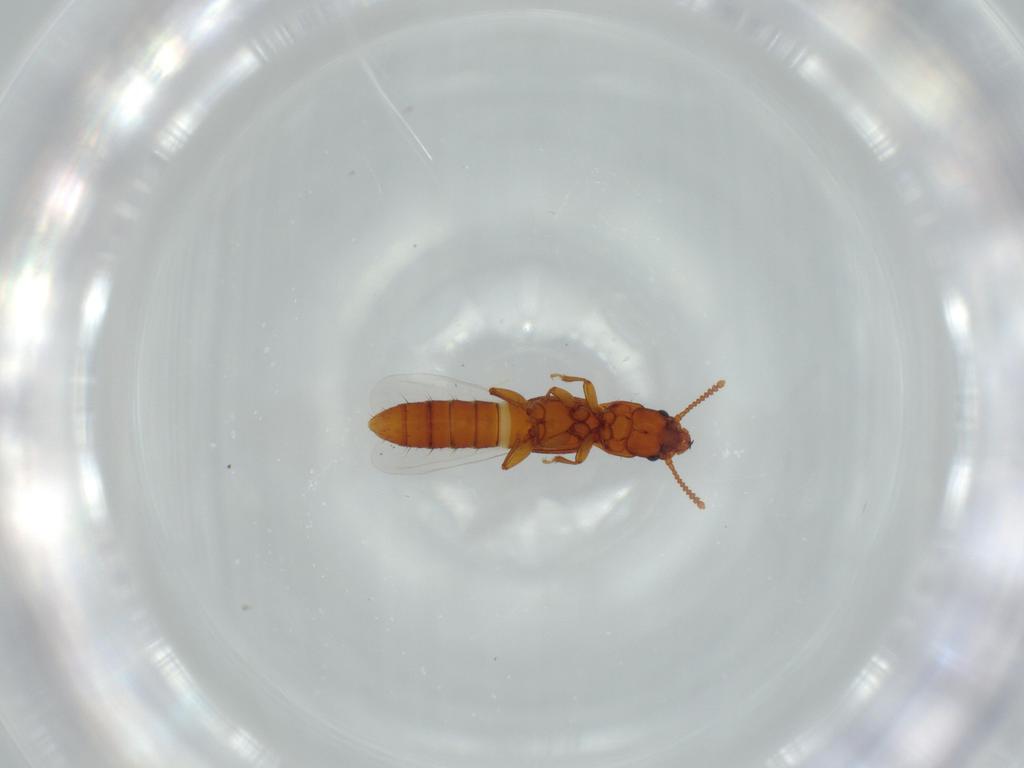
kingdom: Animalia
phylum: Arthropoda
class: Insecta
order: Coleoptera
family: Staphylinidae
